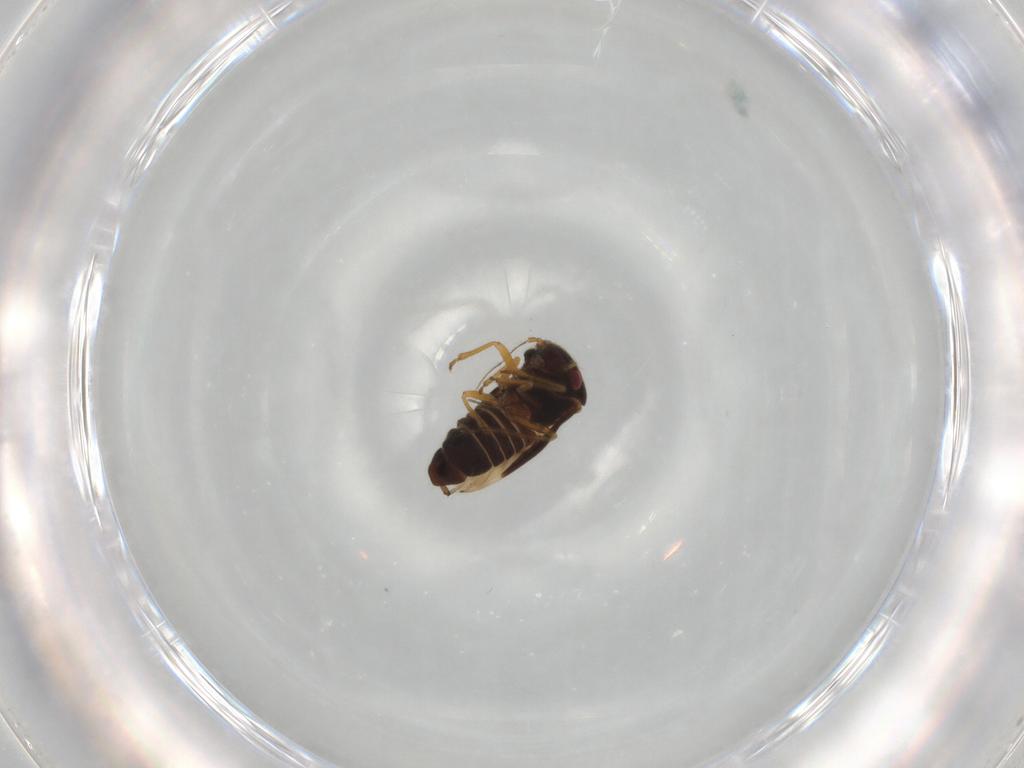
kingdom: Animalia
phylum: Arthropoda
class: Insecta
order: Hemiptera
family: Schizopteridae
